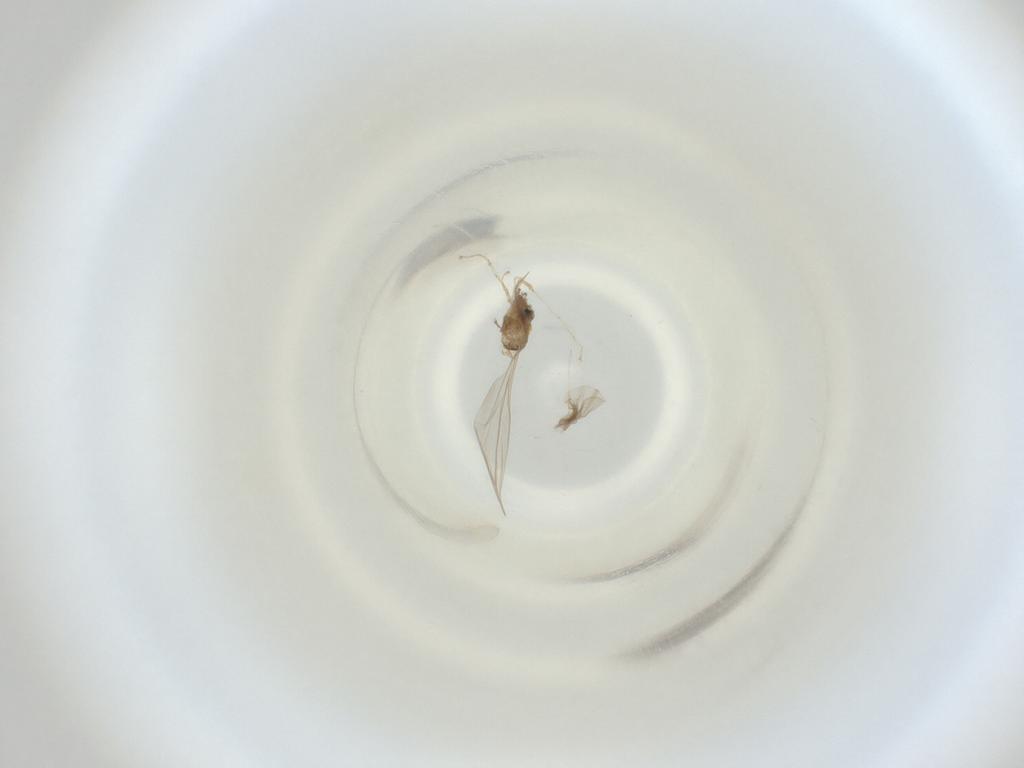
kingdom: Animalia
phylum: Arthropoda
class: Insecta
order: Diptera
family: Cecidomyiidae
